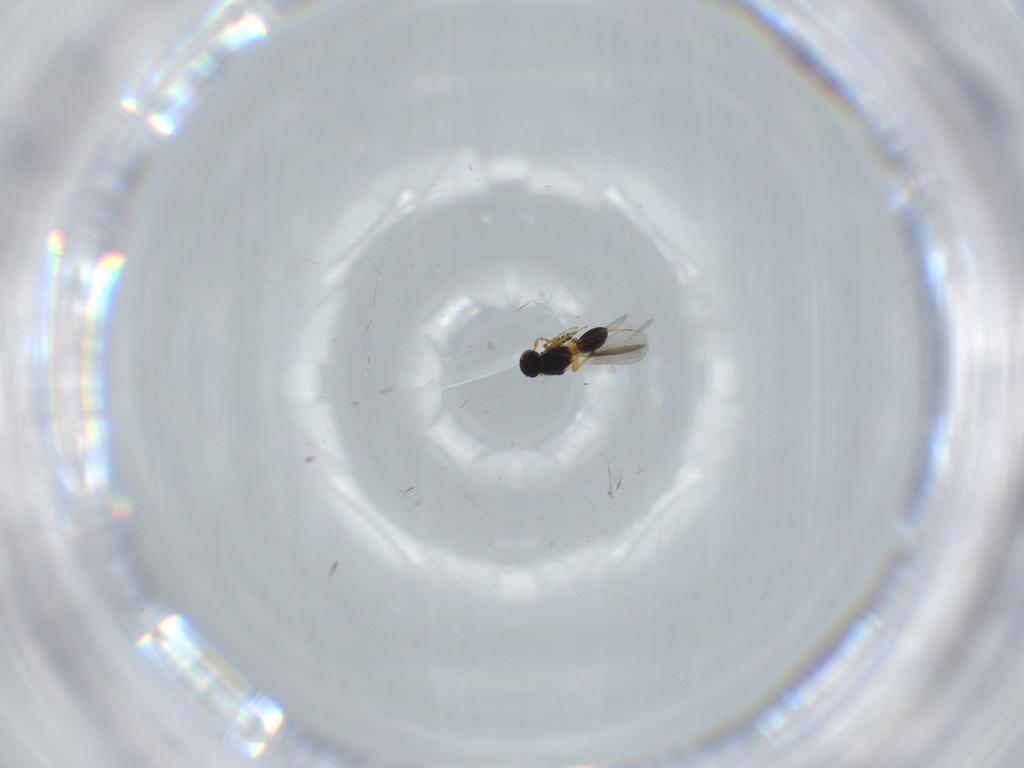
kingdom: Animalia
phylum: Arthropoda
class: Insecta
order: Hymenoptera
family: Platygastridae
